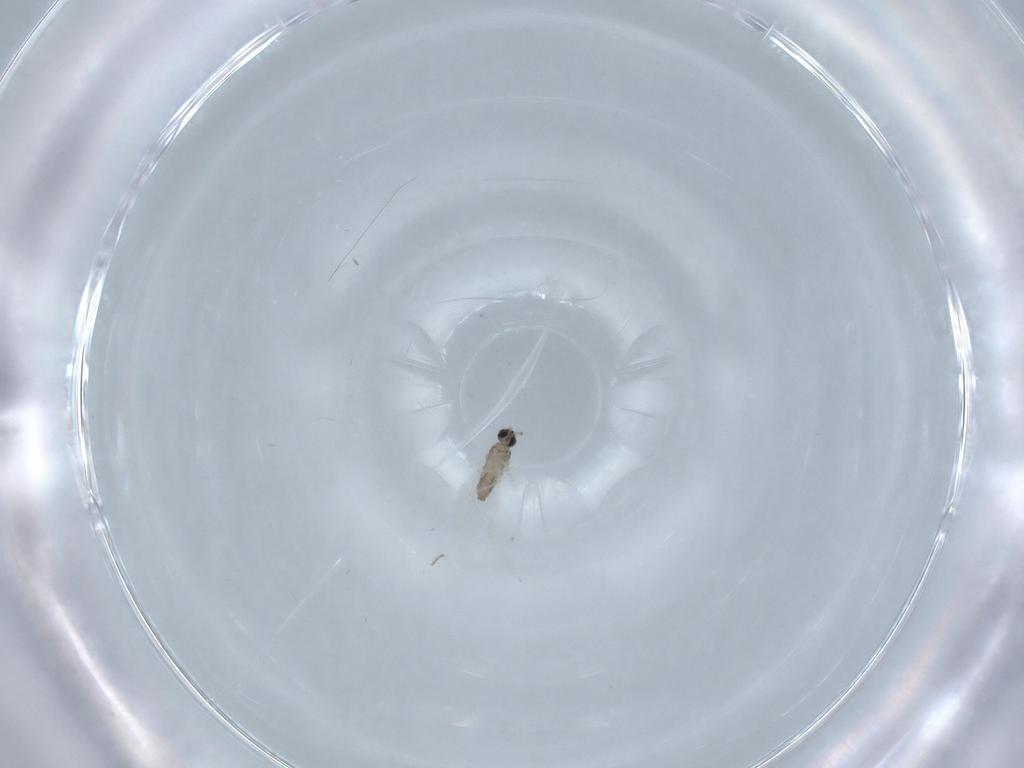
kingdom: Animalia
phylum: Arthropoda
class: Insecta
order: Diptera
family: Cecidomyiidae
